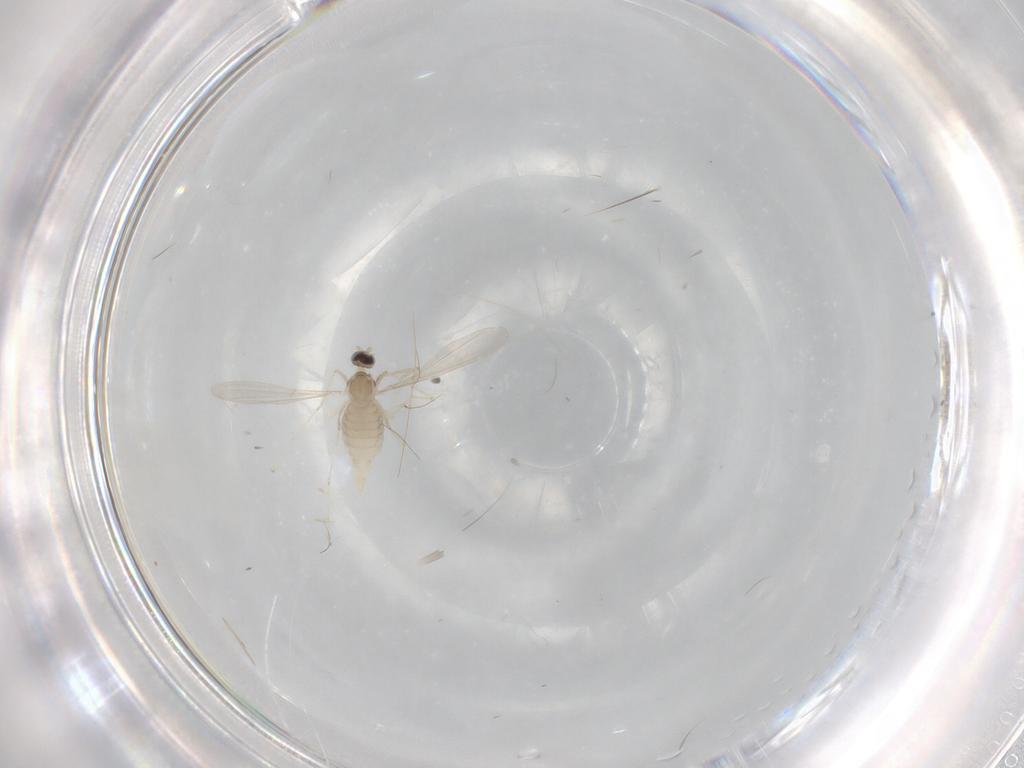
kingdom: Animalia
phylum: Arthropoda
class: Insecta
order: Diptera
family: Cecidomyiidae
